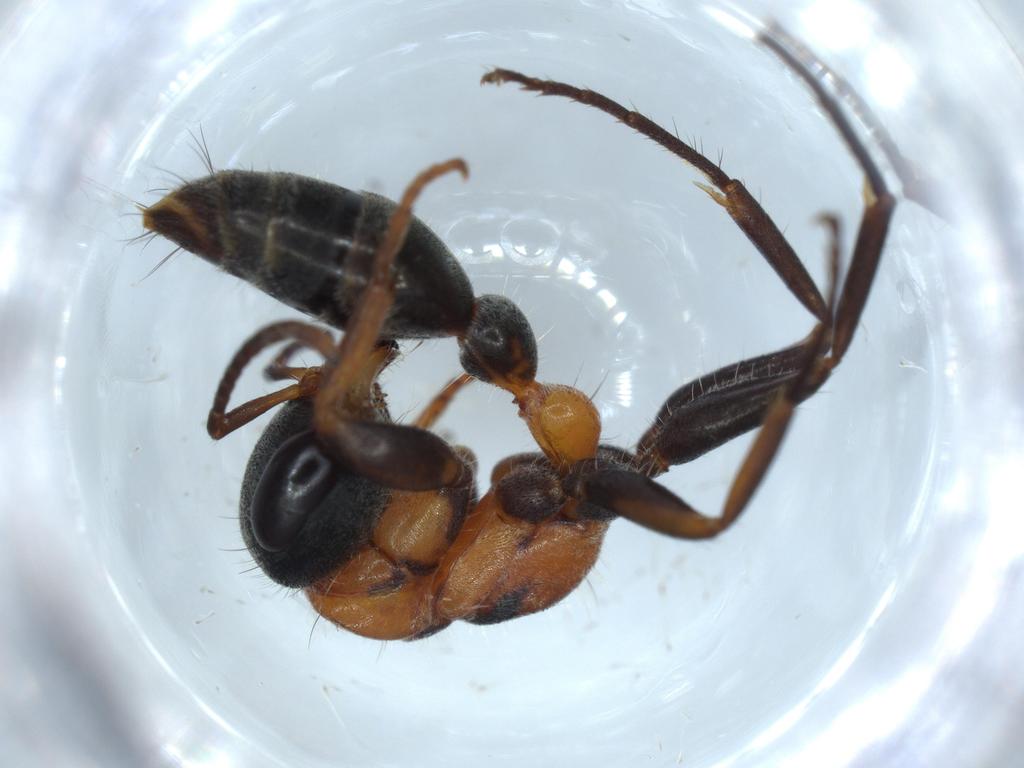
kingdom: Animalia
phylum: Arthropoda
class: Insecta
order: Hymenoptera
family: Formicidae
